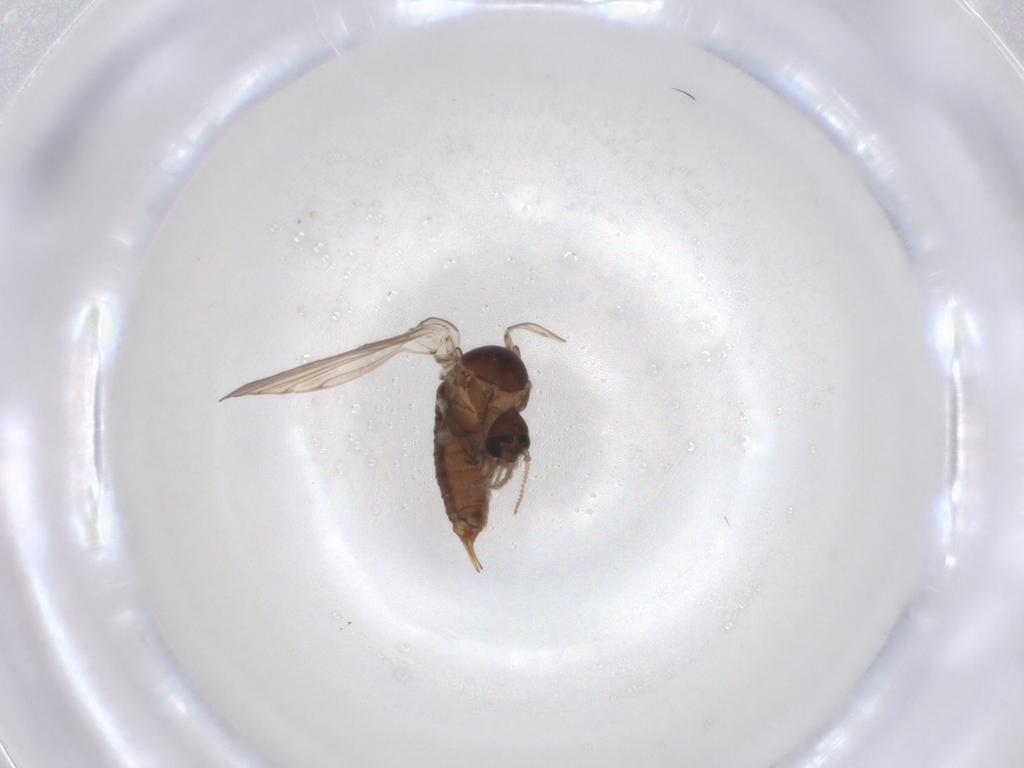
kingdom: Animalia
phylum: Arthropoda
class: Insecta
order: Diptera
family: Psychodidae
